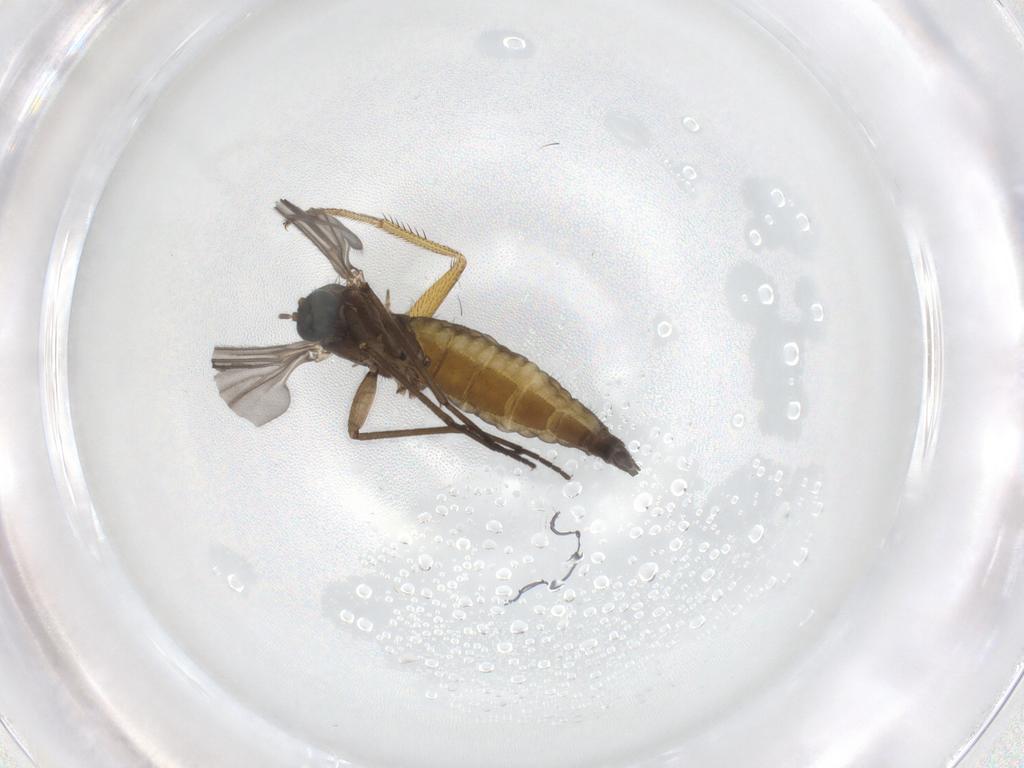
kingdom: Animalia
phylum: Arthropoda
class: Insecta
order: Diptera
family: Sciaridae
